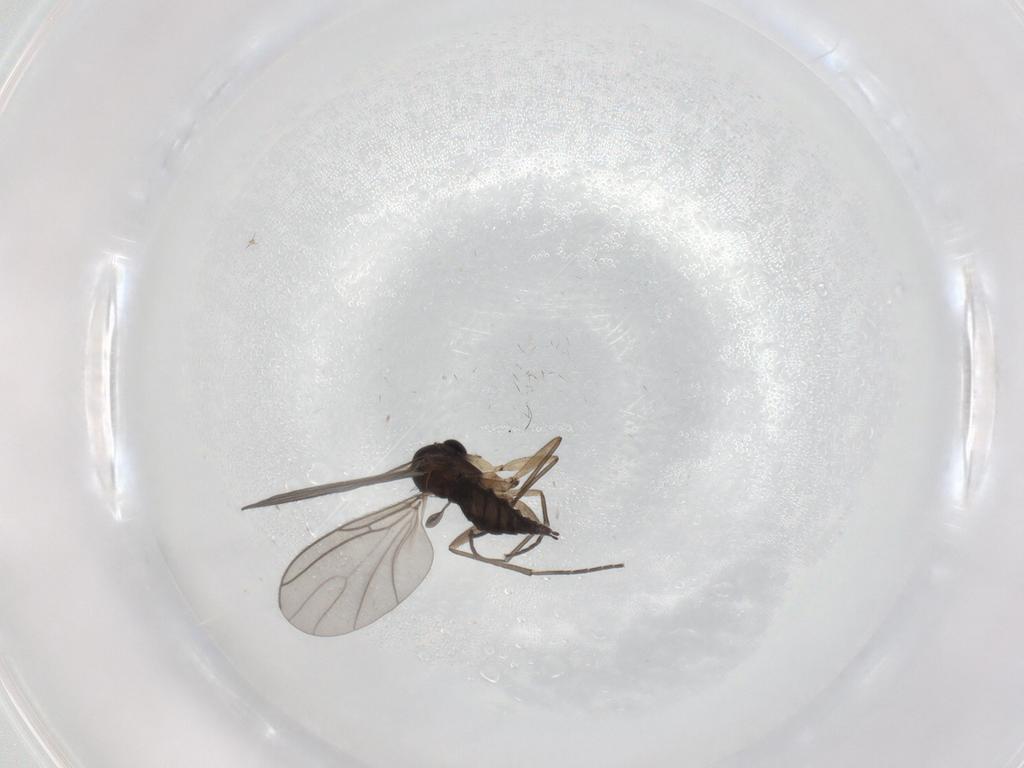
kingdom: Animalia
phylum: Arthropoda
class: Insecta
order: Diptera
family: Sciaridae
